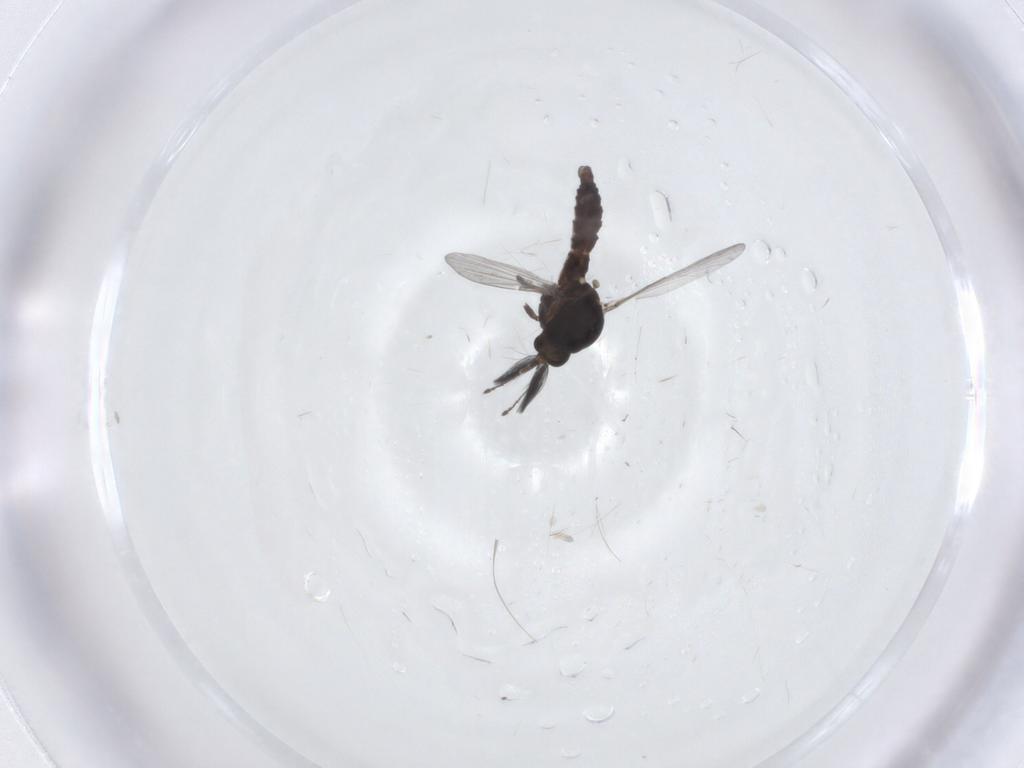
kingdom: Animalia
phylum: Arthropoda
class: Insecta
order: Diptera
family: Ceratopogonidae
